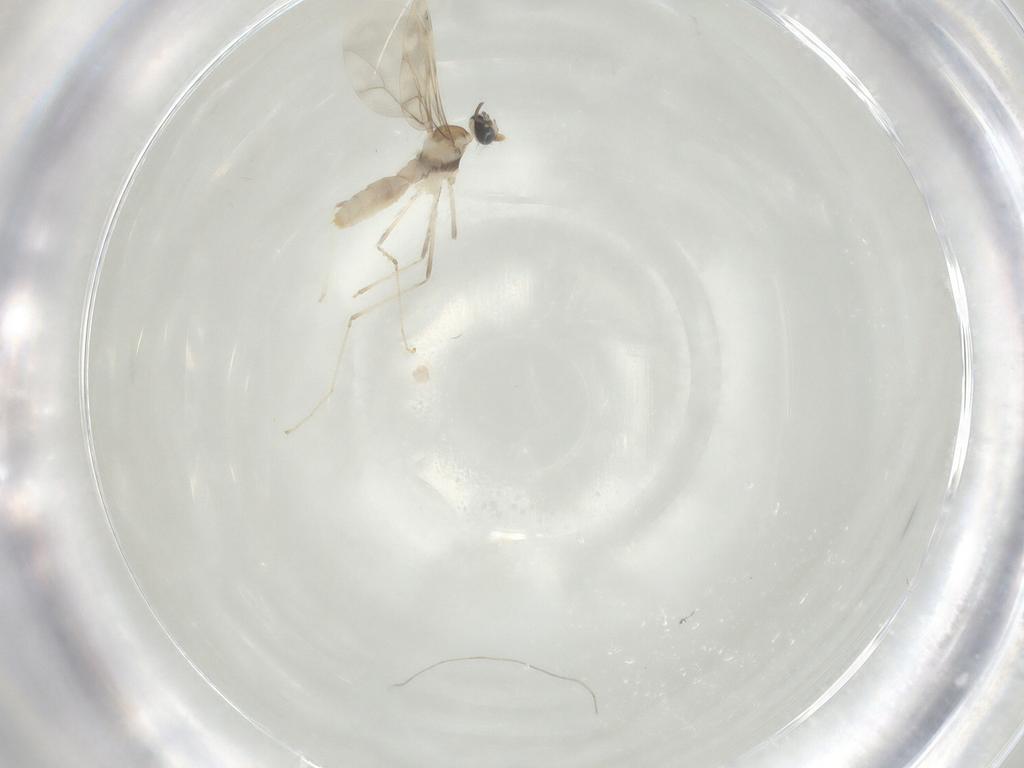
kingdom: Animalia
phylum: Arthropoda
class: Insecta
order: Diptera
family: Cecidomyiidae
